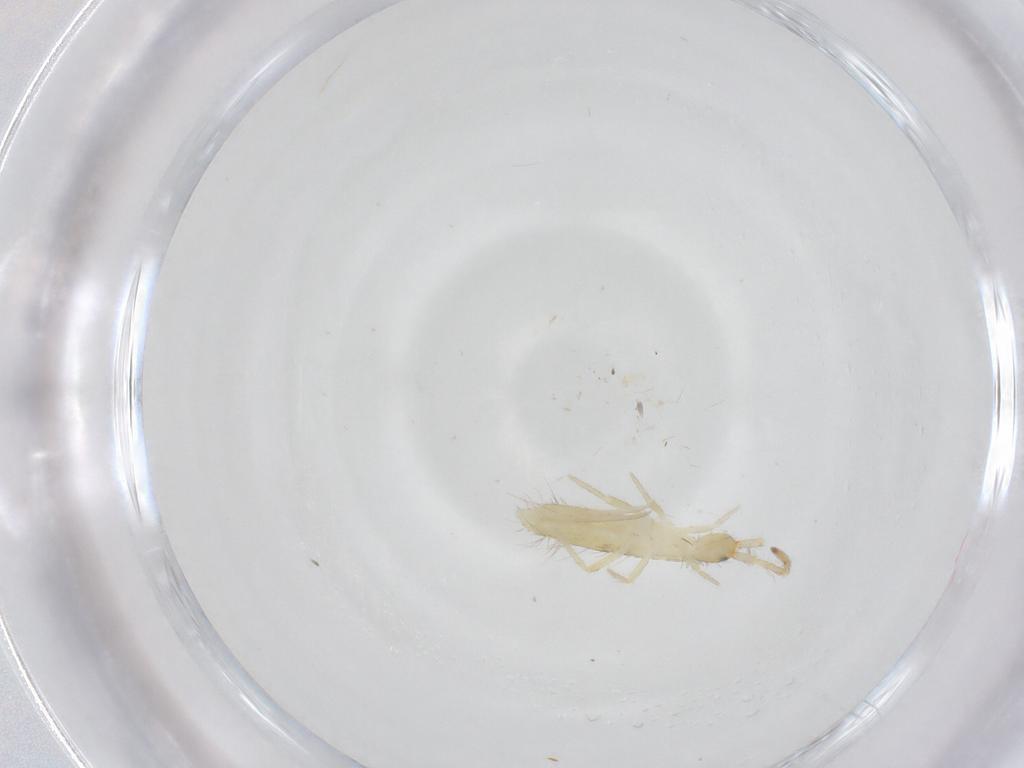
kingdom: Animalia
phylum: Arthropoda
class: Collembola
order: Entomobryomorpha
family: Entomobryidae
